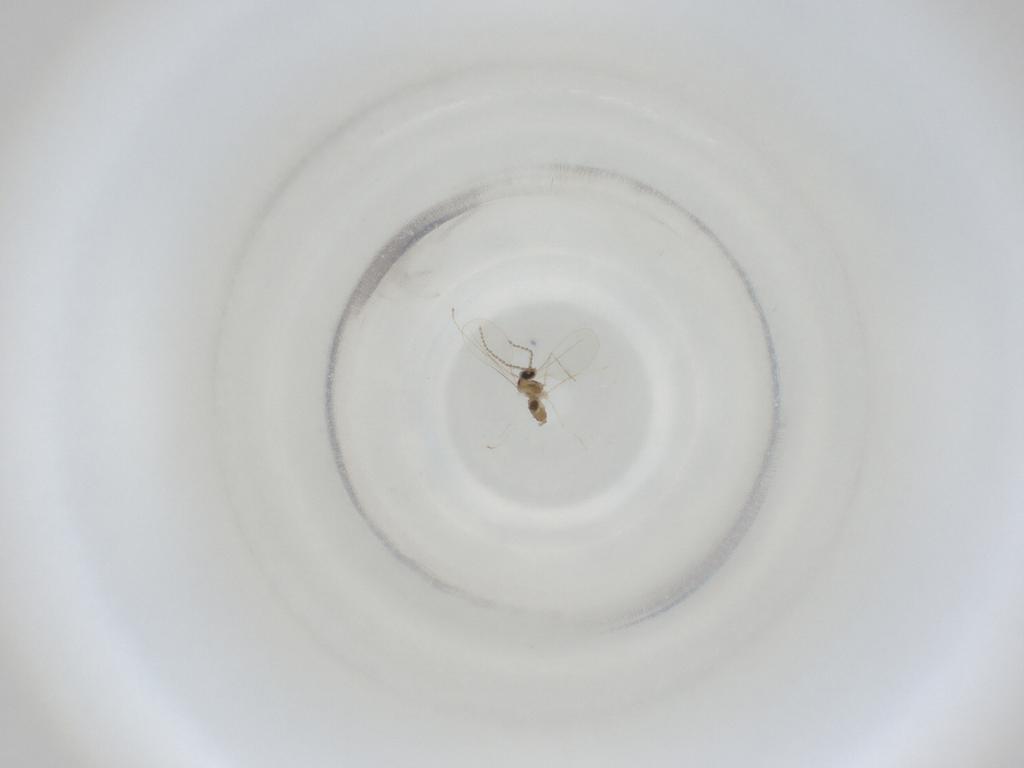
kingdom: Animalia
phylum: Arthropoda
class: Insecta
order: Diptera
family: Cecidomyiidae
